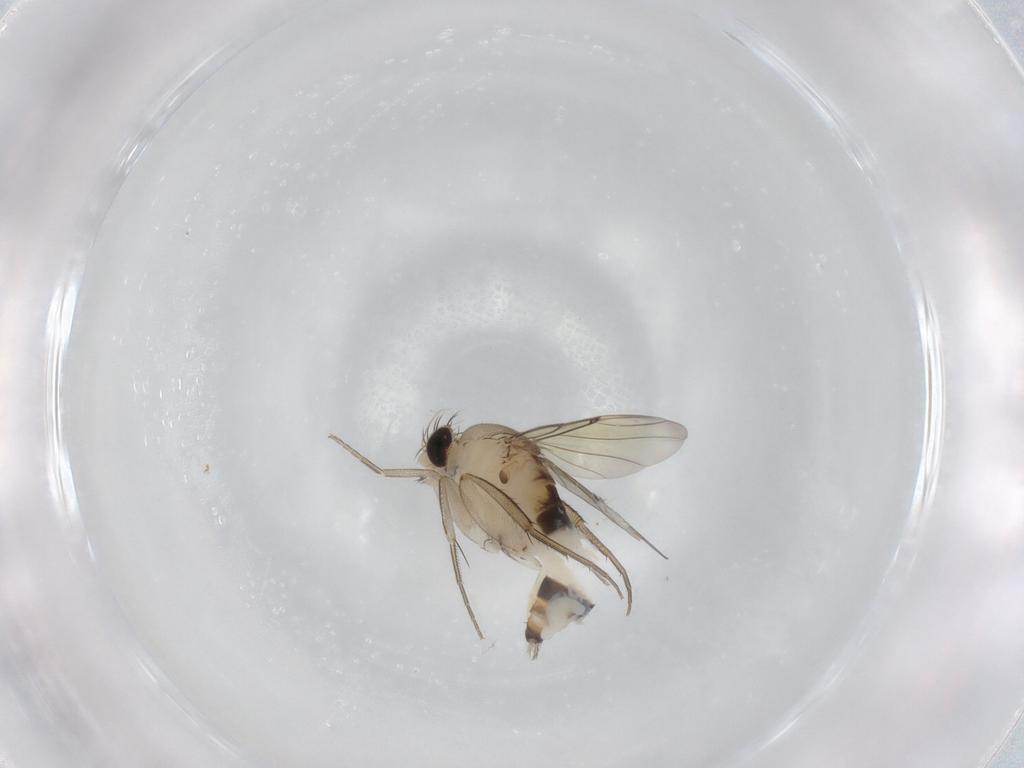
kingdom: Animalia
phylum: Arthropoda
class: Insecta
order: Diptera
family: Phoridae
